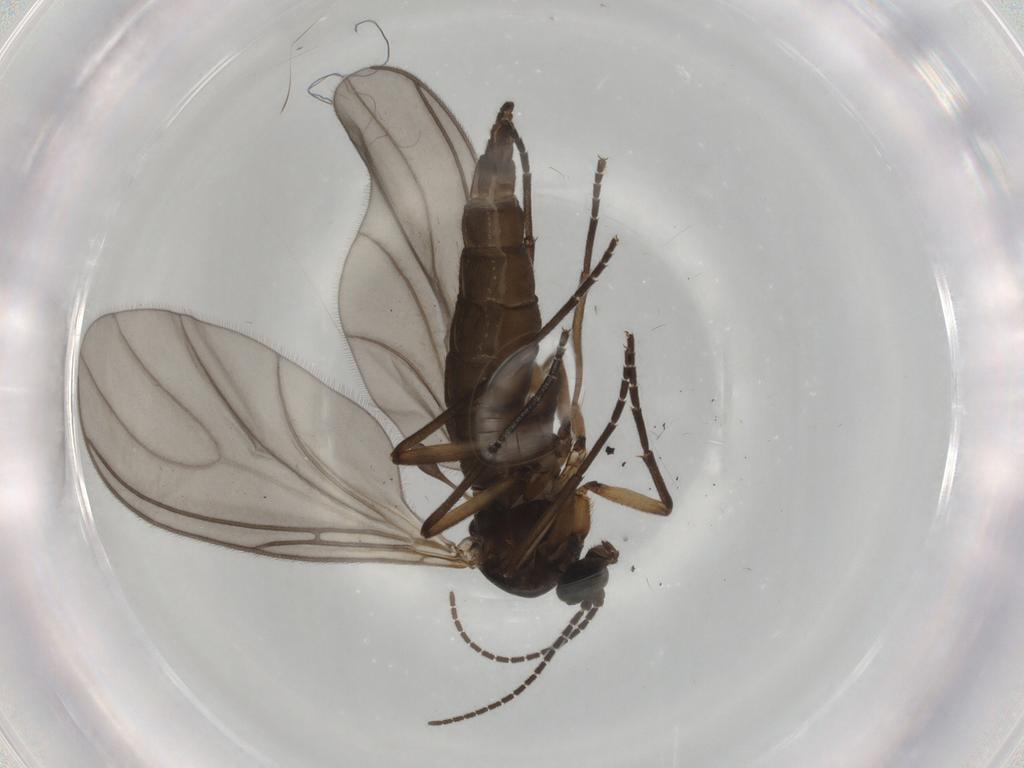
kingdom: Animalia
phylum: Arthropoda
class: Insecta
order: Diptera
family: Sciaridae
